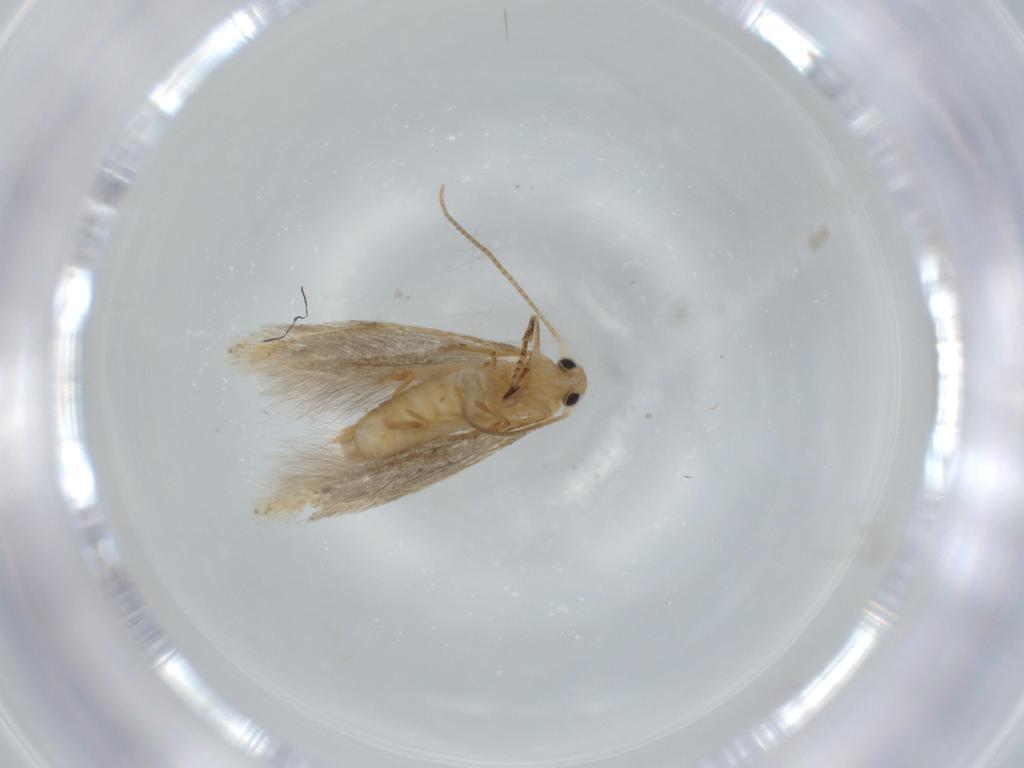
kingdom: Animalia
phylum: Arthropoda
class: Insecta
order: Lepidoptera
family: Bucculatricidae
